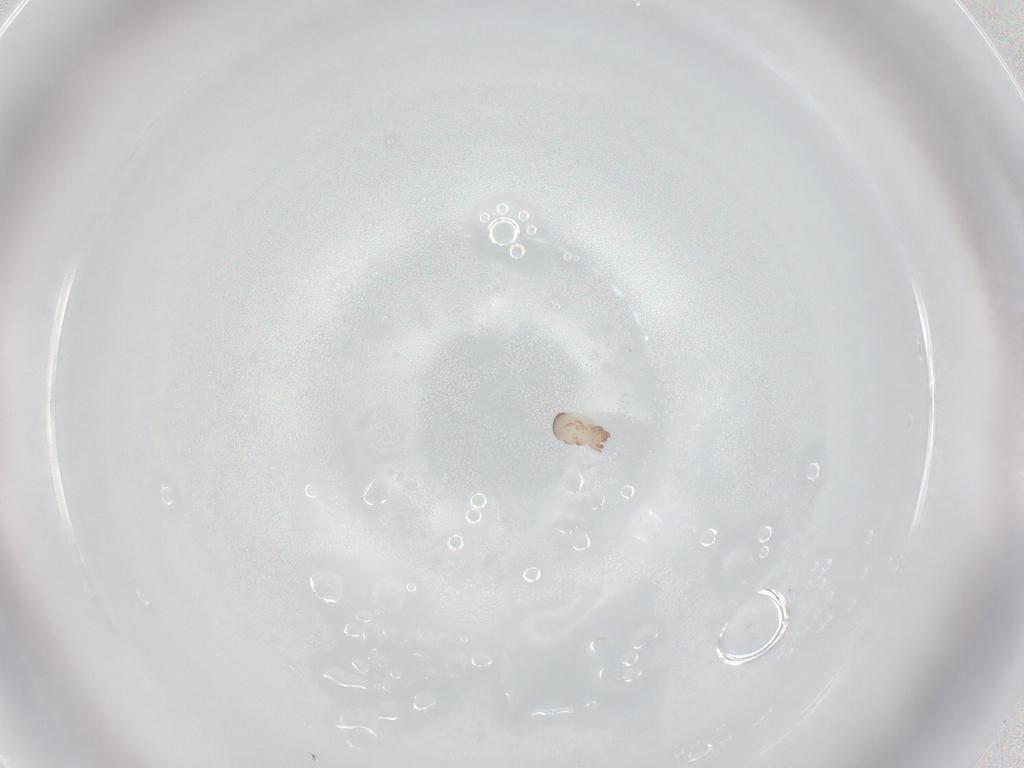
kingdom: Animalia
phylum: Arthropoda
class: Arachnida
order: Sarcoptiformes
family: Trhypochthoniidae
